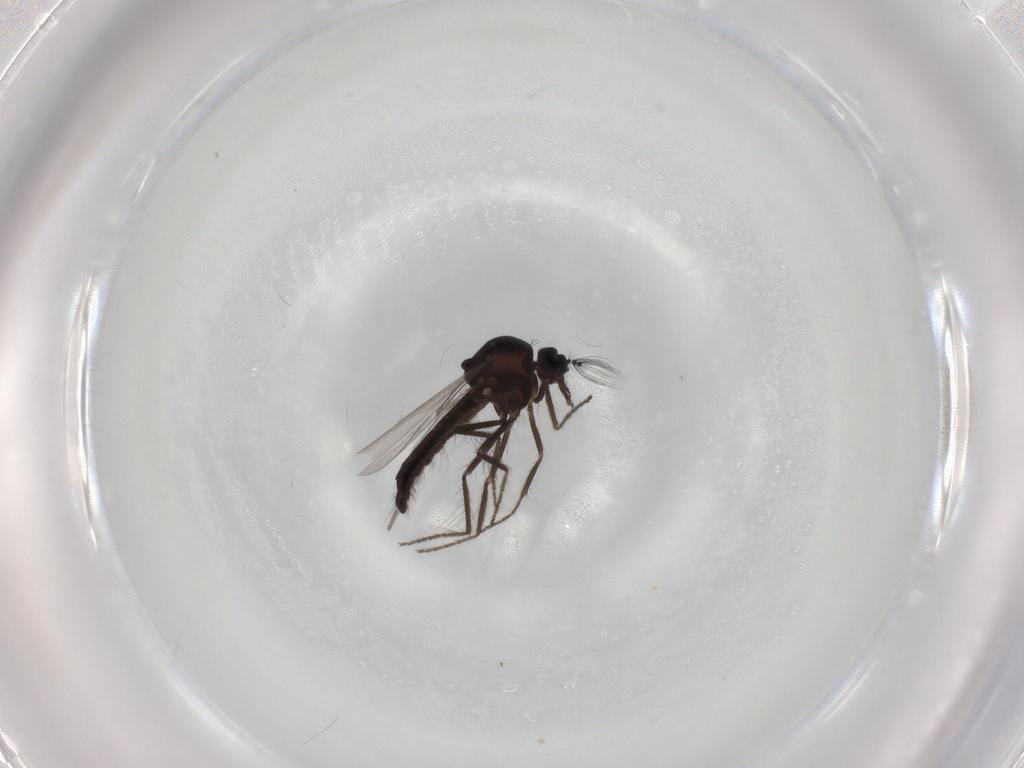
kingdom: Animalia
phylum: Arthropoda
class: Insecta
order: Diptera
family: Ceratopogonidae
